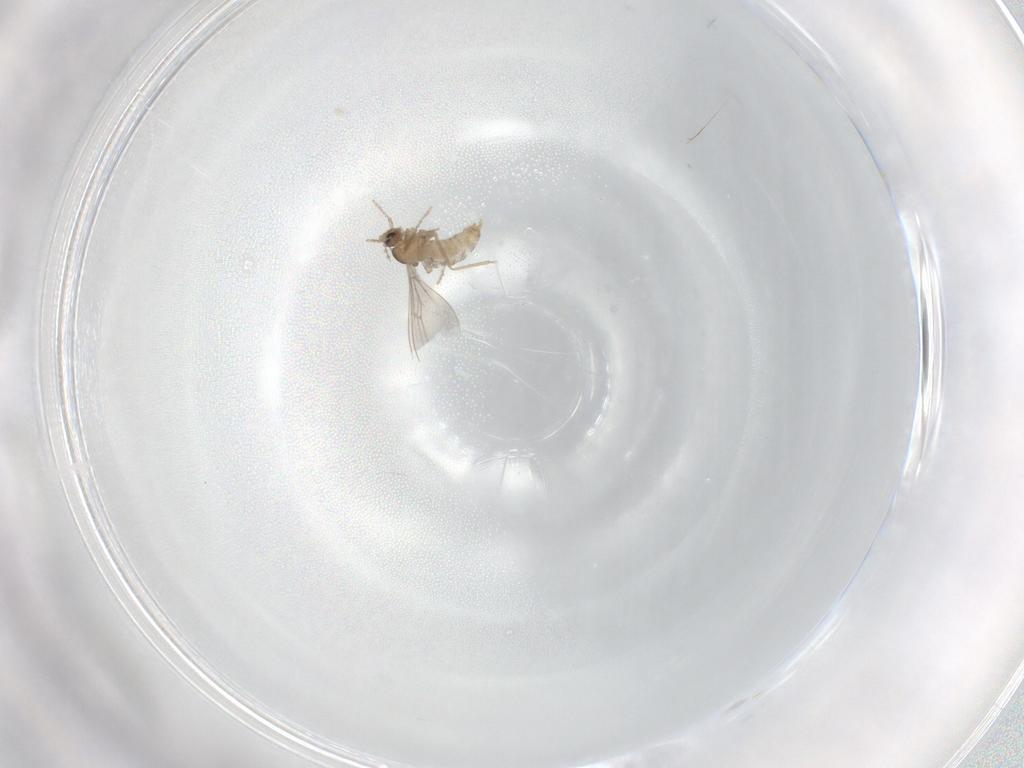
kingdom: Animalia
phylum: Arthropoda
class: Insecta
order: Diptera
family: Cecidomyiidae
